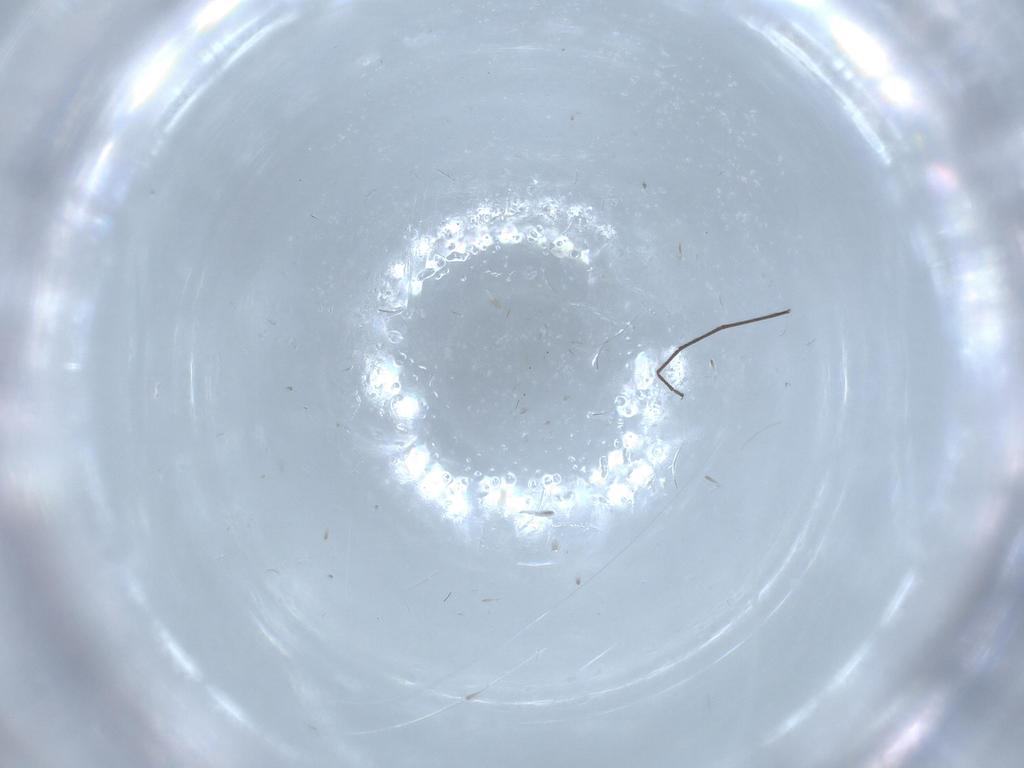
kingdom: Animalia
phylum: Arthropoda
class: Insecta
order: Diptera
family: Chironomidae
